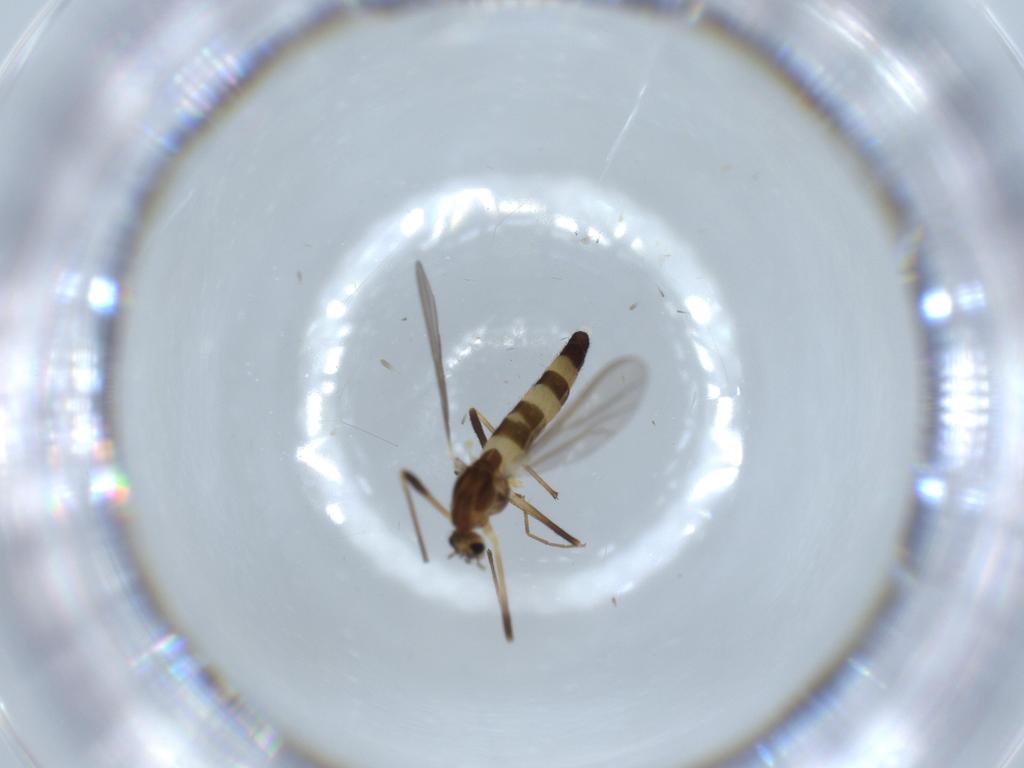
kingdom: Animalia
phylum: Arthropoda
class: Insecta
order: Diptera
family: Chironomidae
